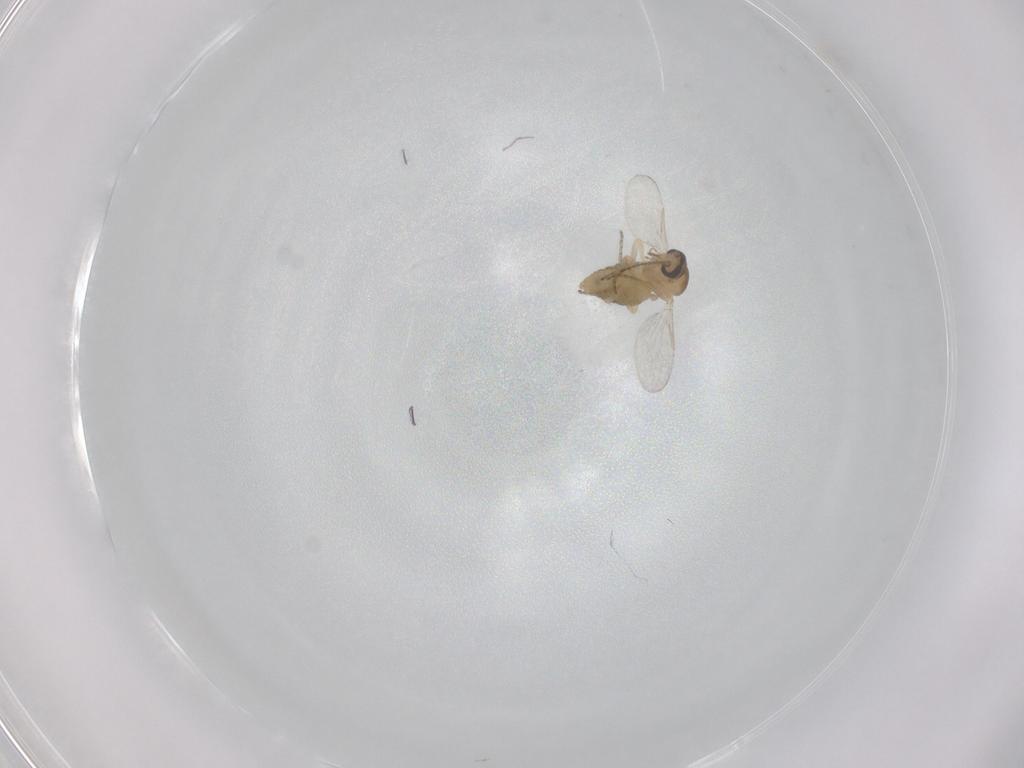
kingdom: Animalia
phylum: Arthropoda
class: Insecta
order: Diptera
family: Ceratopogonidae
